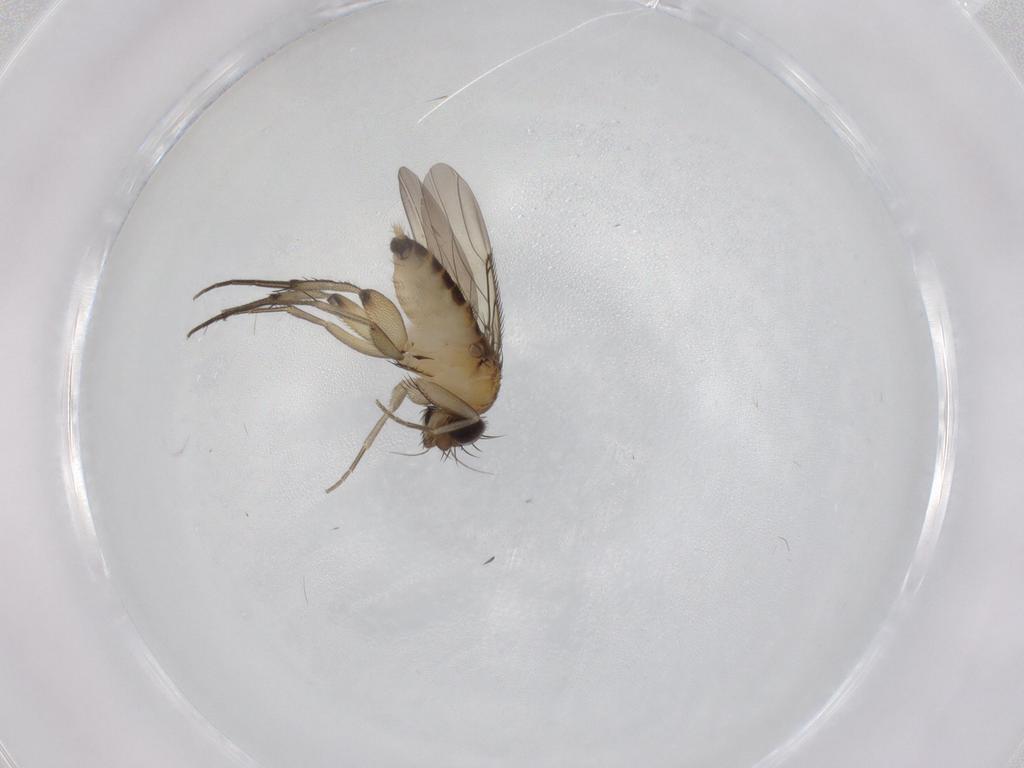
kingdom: Animalia
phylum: Arthropoda
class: Insecta
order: Diptera
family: Phoridae
